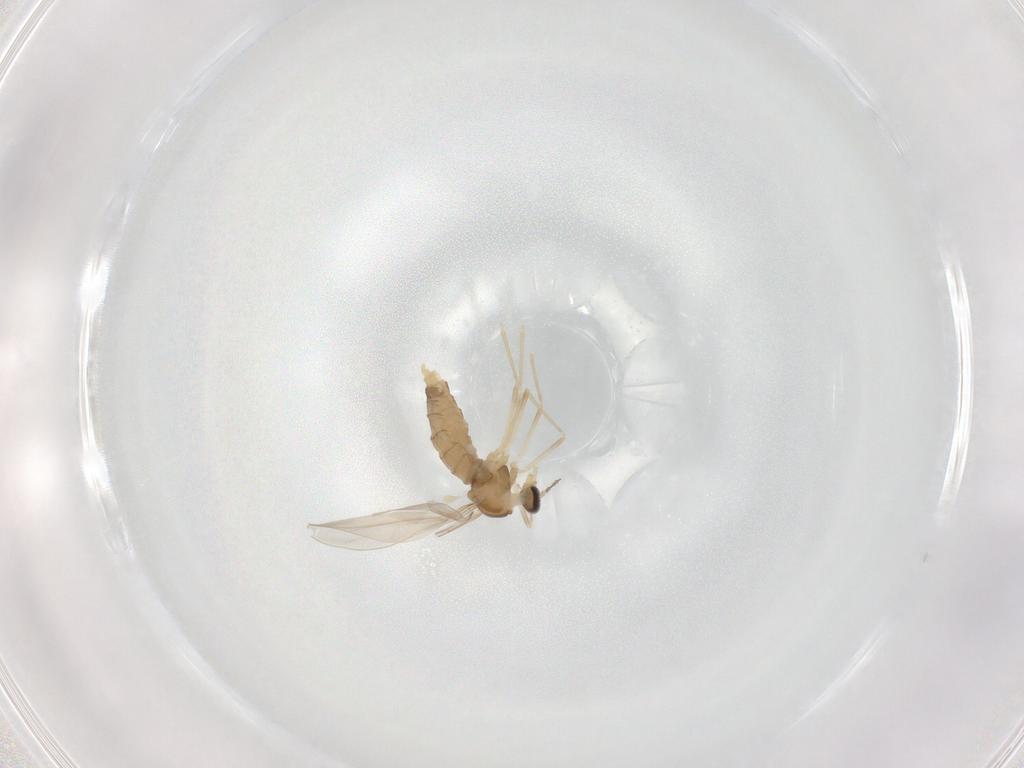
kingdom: Animalia
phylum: Arthropoda
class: Insecta
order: Diptera
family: Cecidomyiidae
